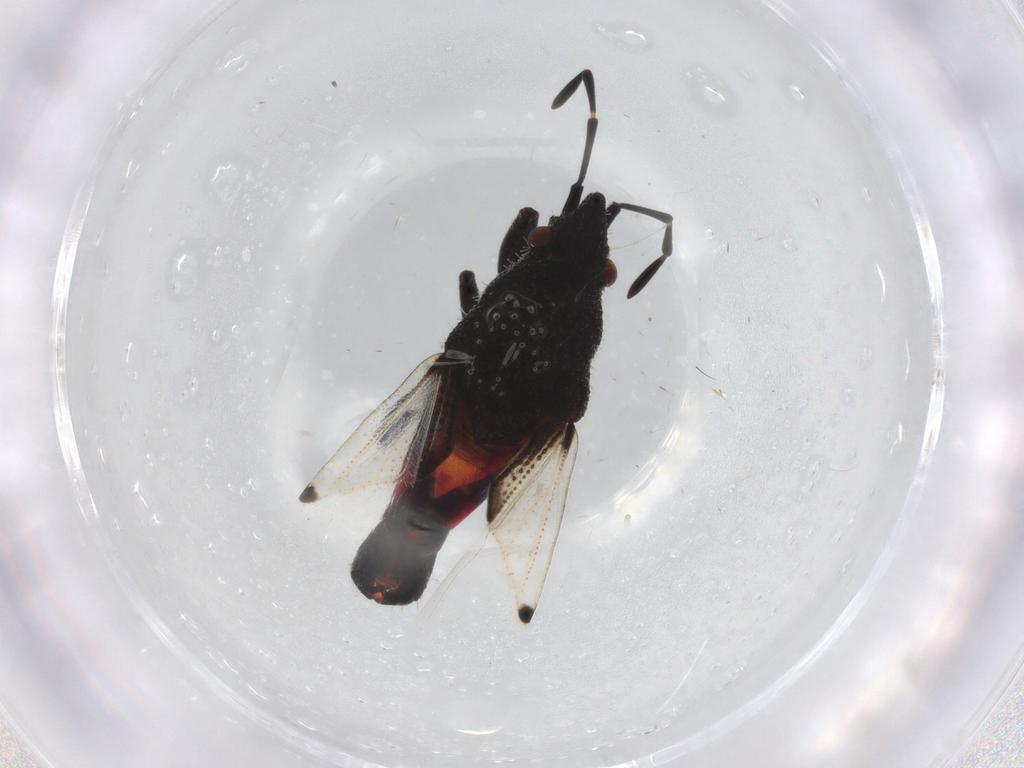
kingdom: Animalia
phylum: Arthropoda
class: Insecta
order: Hemiptera
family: Oxycarenidae
